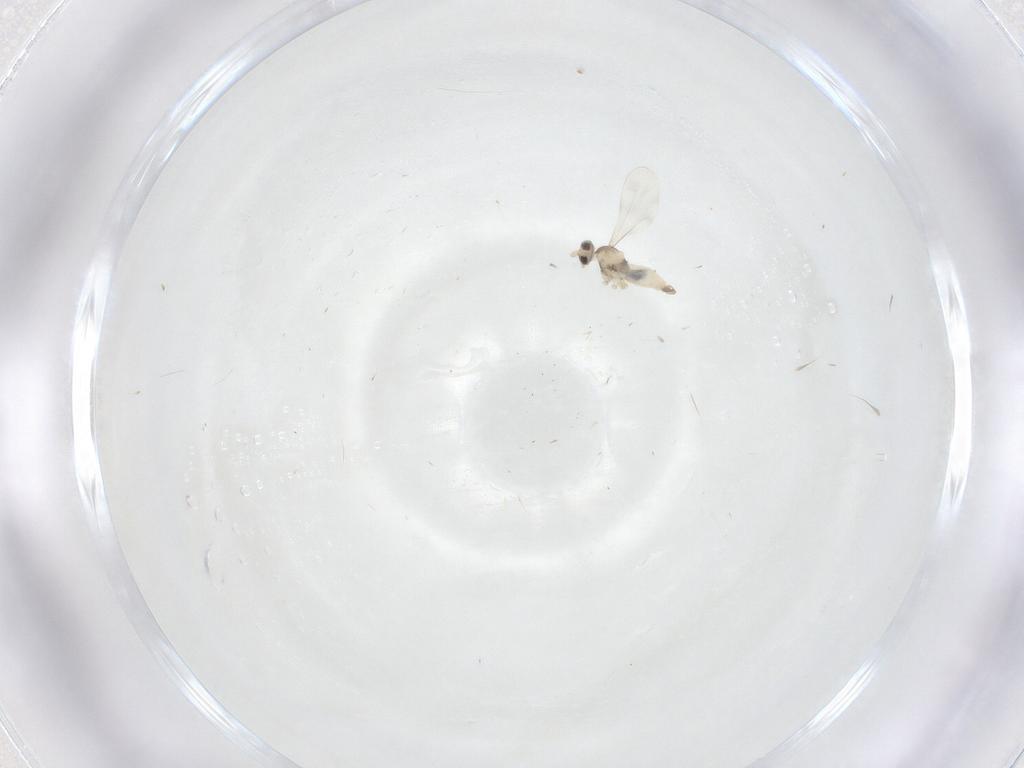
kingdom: Animalia
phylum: Arthropoda
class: Insecta
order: Diptera
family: Cecidomyiidae
